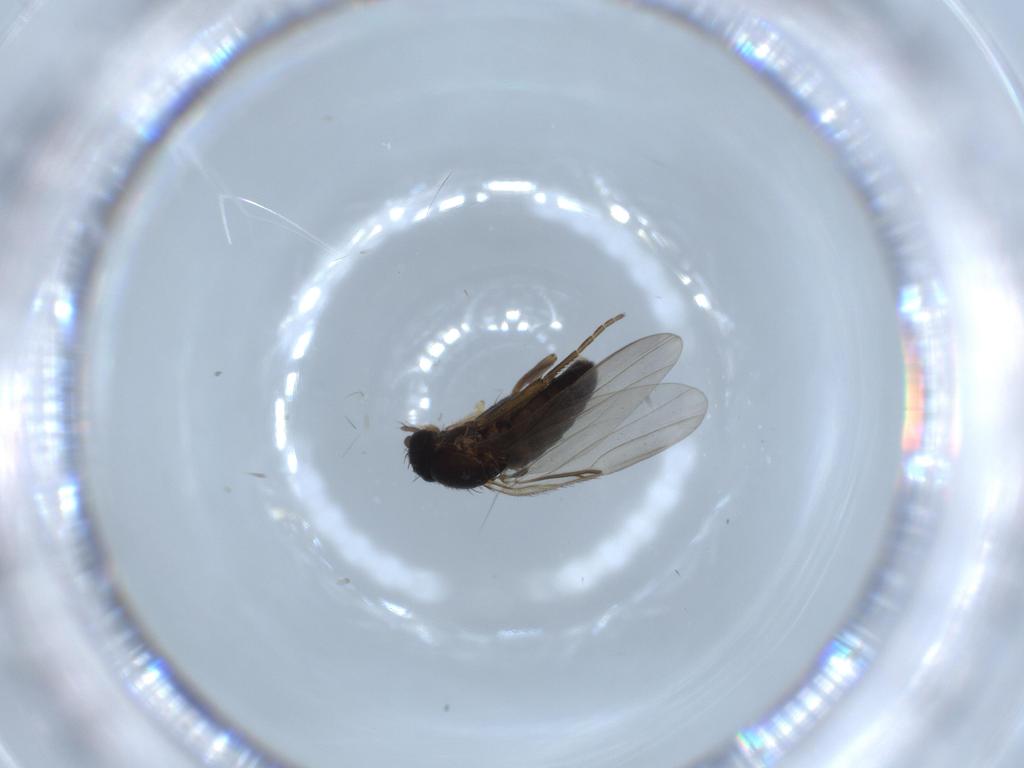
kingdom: Animalia
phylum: Arthropoda
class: Insecta
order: Diptera
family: Phoridae
